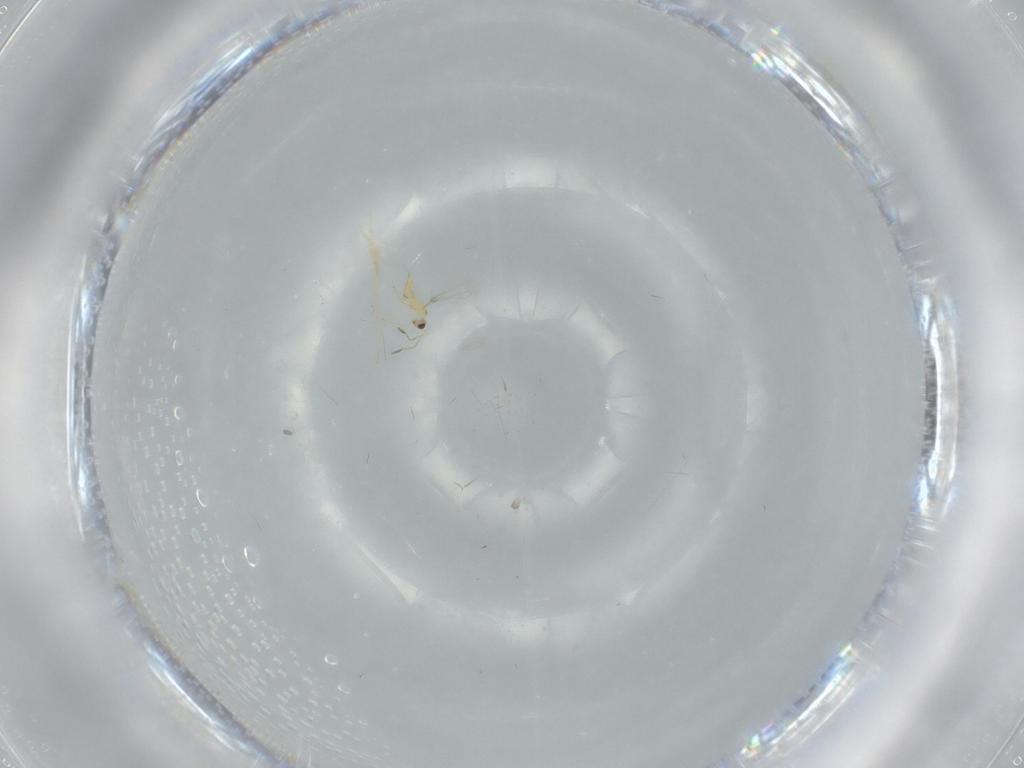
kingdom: Animalia
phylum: Arthropoda
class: Insecta
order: Hymenoptera
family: Mymaridae
